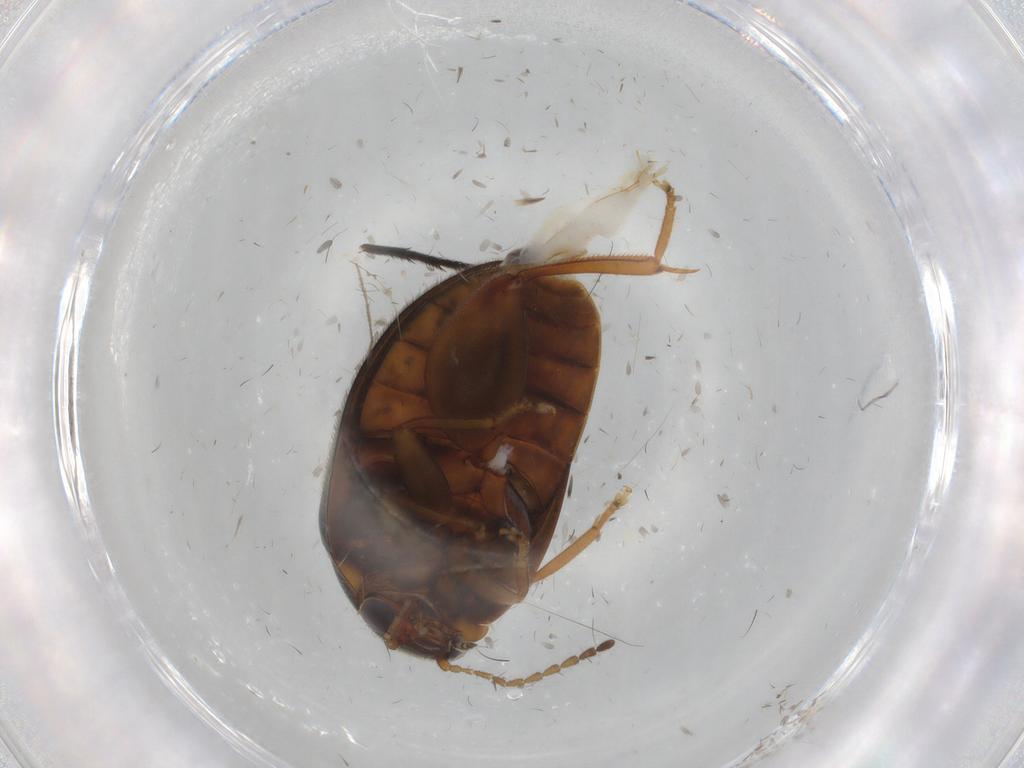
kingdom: Animalia
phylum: Arthropoda
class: Insecta
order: Coleoptera
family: Scirtidae
